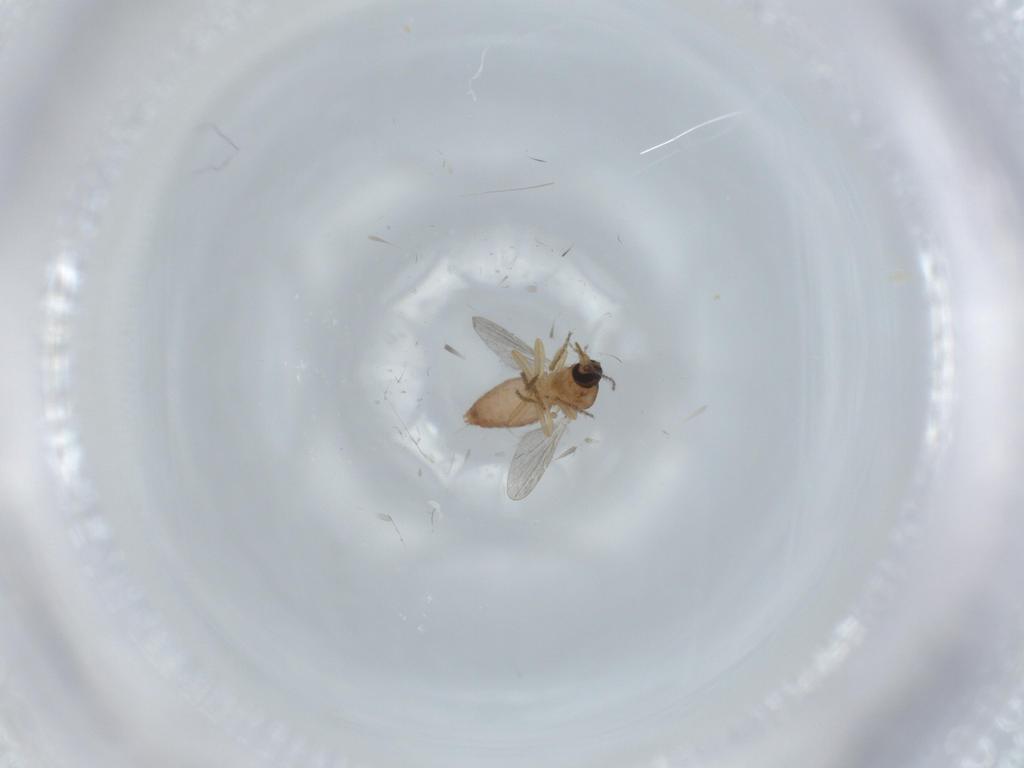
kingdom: Animalia
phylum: Arthropoda
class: Insecta
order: Diptera
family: Ceratopogonidae
